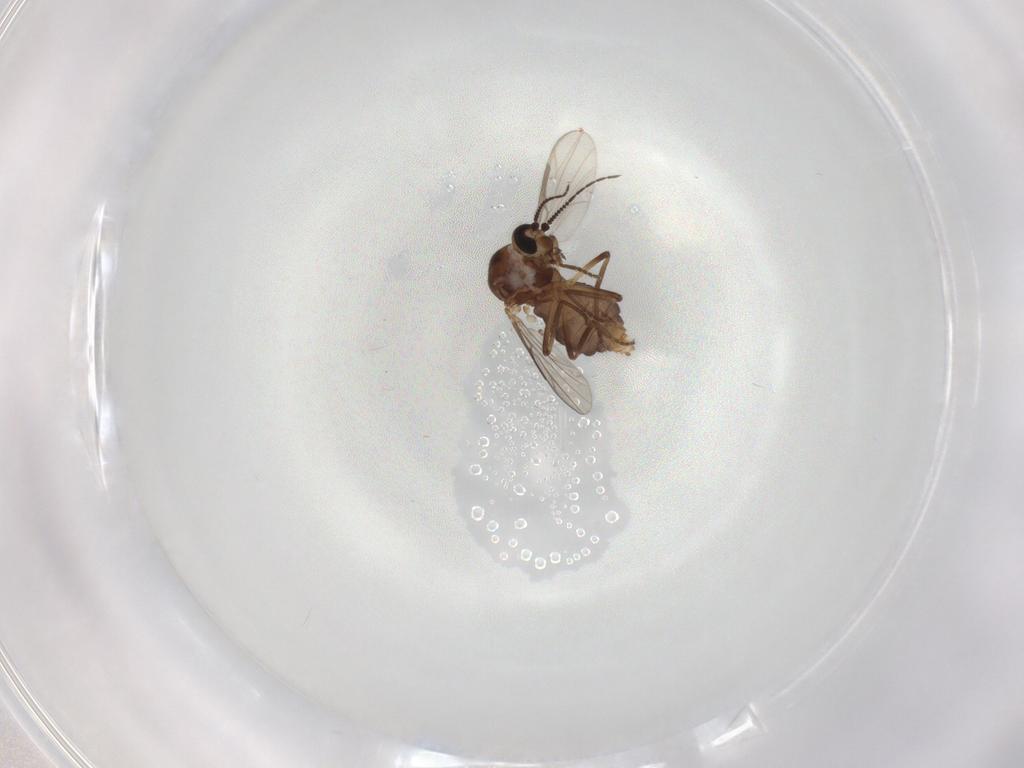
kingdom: Animalia
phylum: Arthropoda
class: Insecta
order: Diptera
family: Ceratopogonidae
